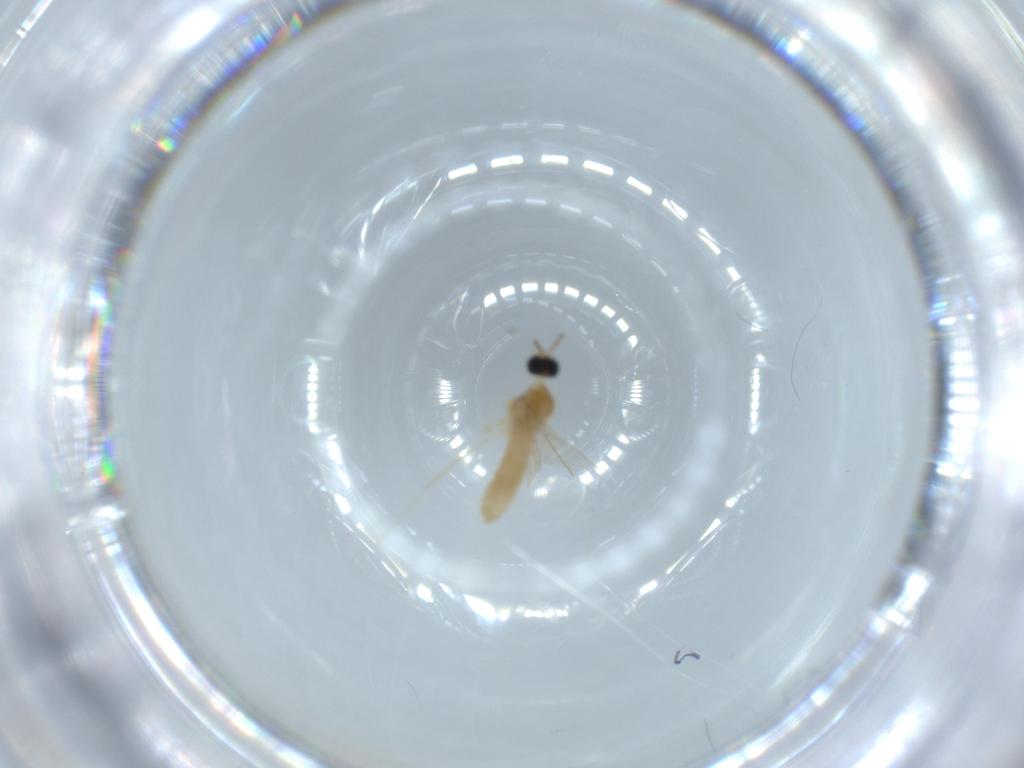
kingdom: Animalia
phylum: Arthropoda
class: Insecta
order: Diptera
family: Cecidomyiidae
